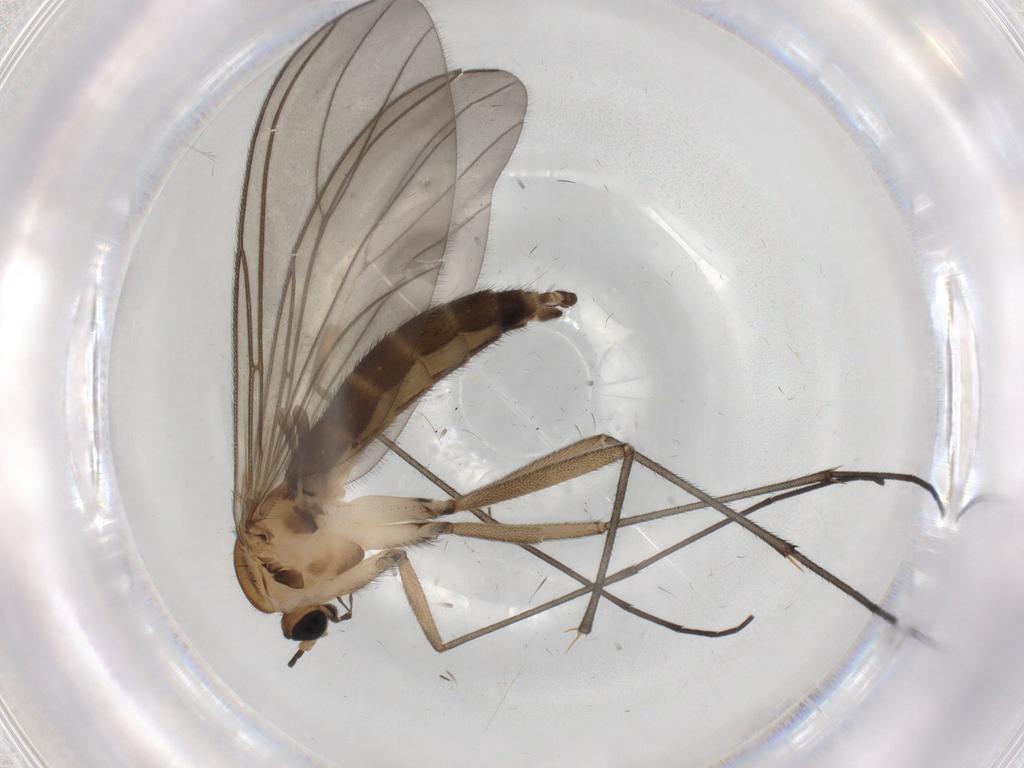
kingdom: Animalia
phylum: Arthropoda
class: Insecta
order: Diptera
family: Sciaridae
